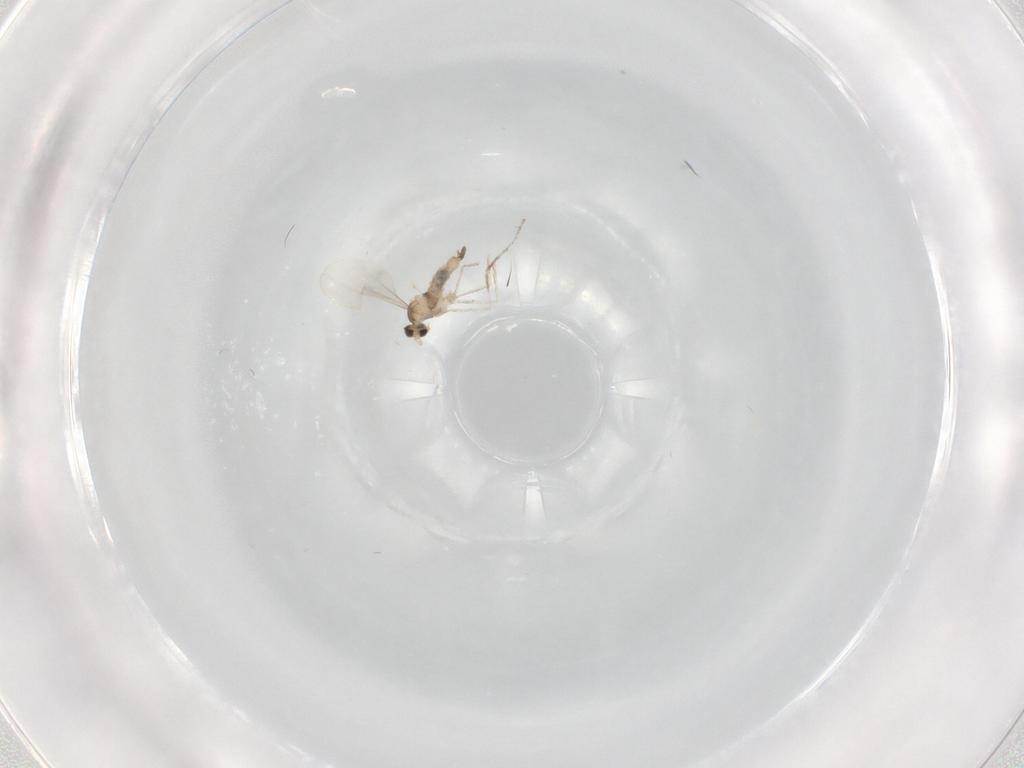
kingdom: Animalia
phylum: Arthropoda
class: Insecta
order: Diptera
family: Cecidomyiidae
